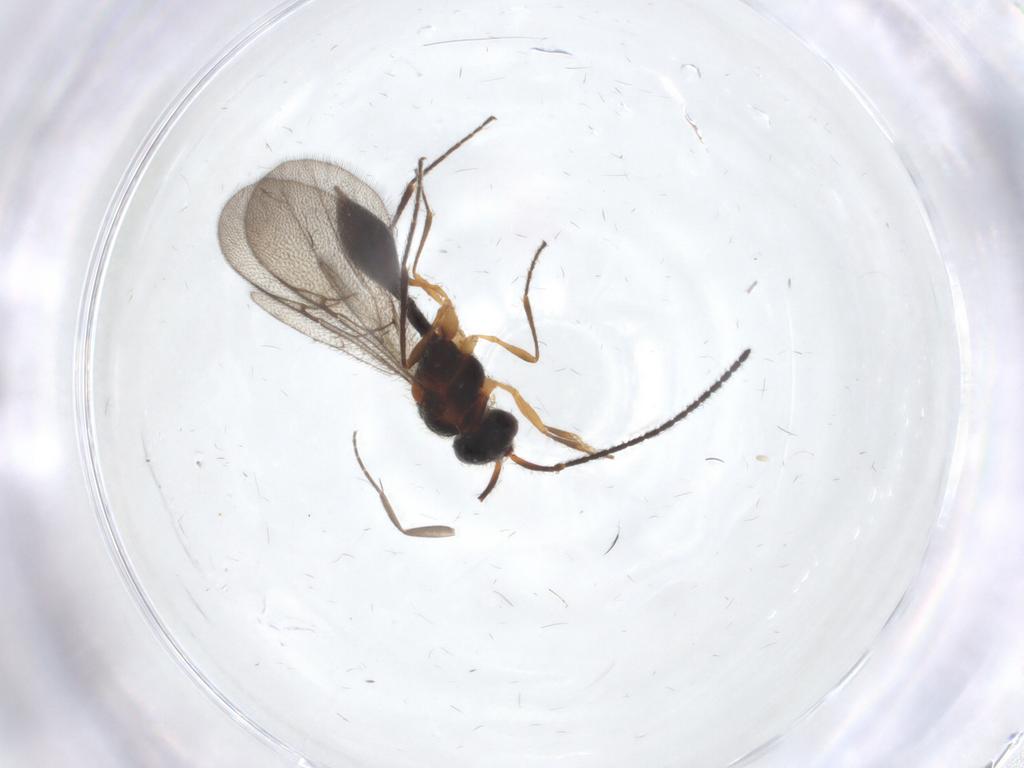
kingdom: Animalia
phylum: Arthropoda
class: Insecta
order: Hymenoptera
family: Diapriidae
